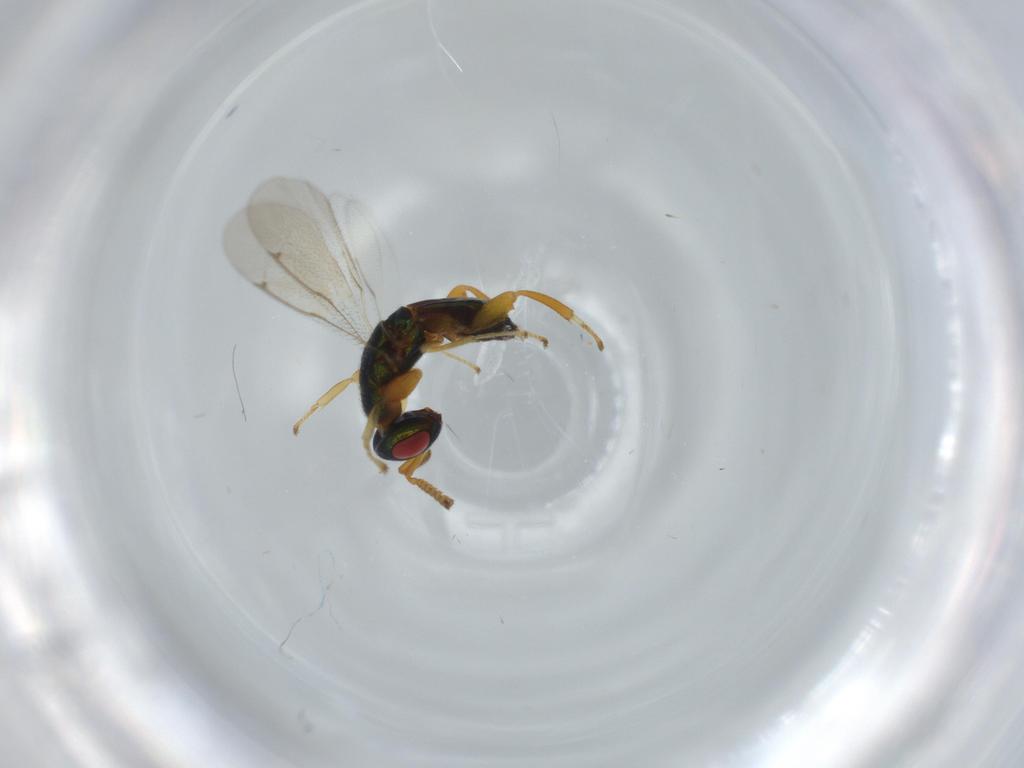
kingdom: Animalia
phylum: Arthropoda
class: Insecta
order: Hymenoptera
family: Torymidae
